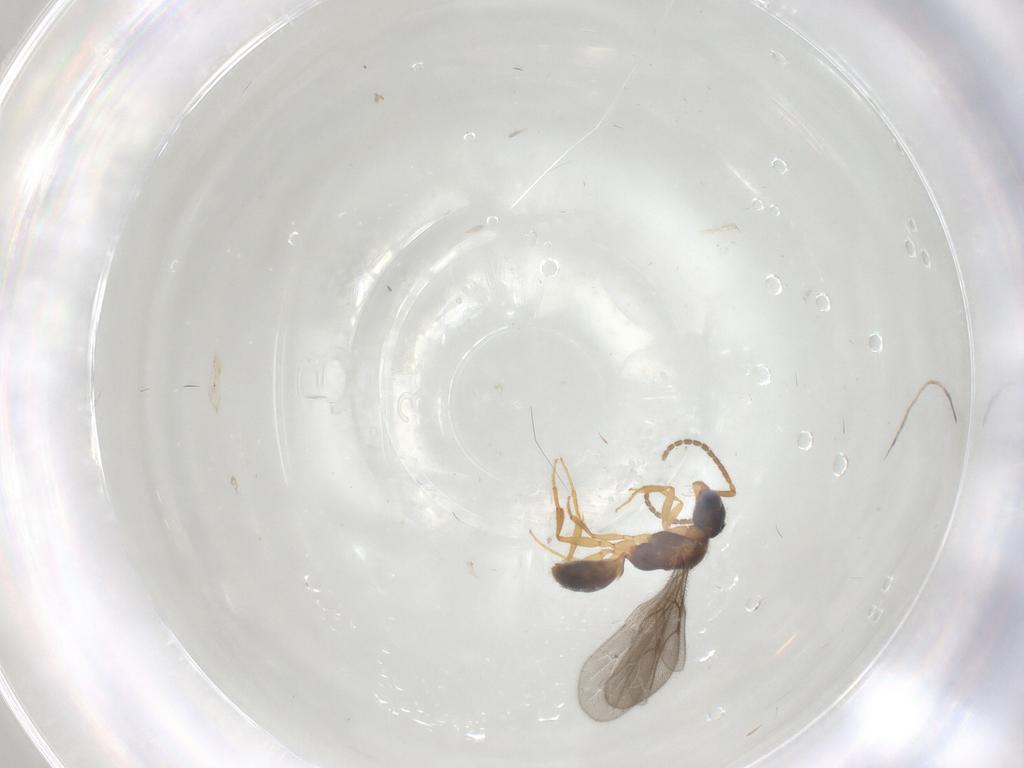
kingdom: Animalia
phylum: Arthropoda
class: Insecta
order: Hymenoptera
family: Bethylidae
